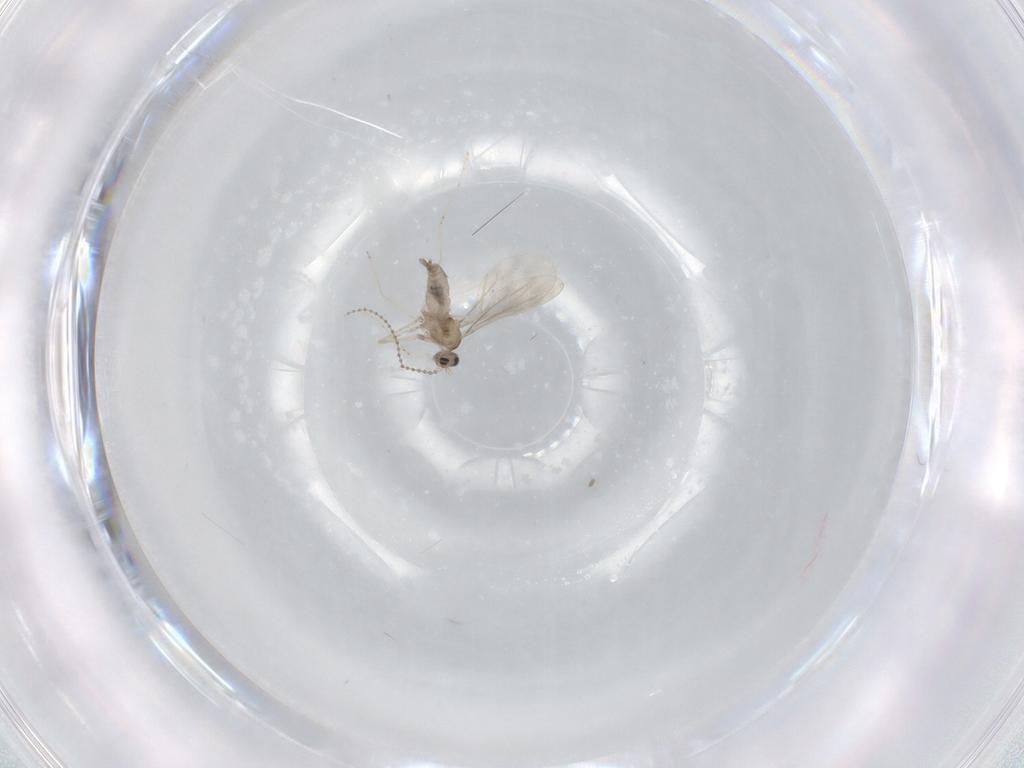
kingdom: Animalia
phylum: Arthropoda
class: Insecta
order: Diptera
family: Cecidomyiidae
